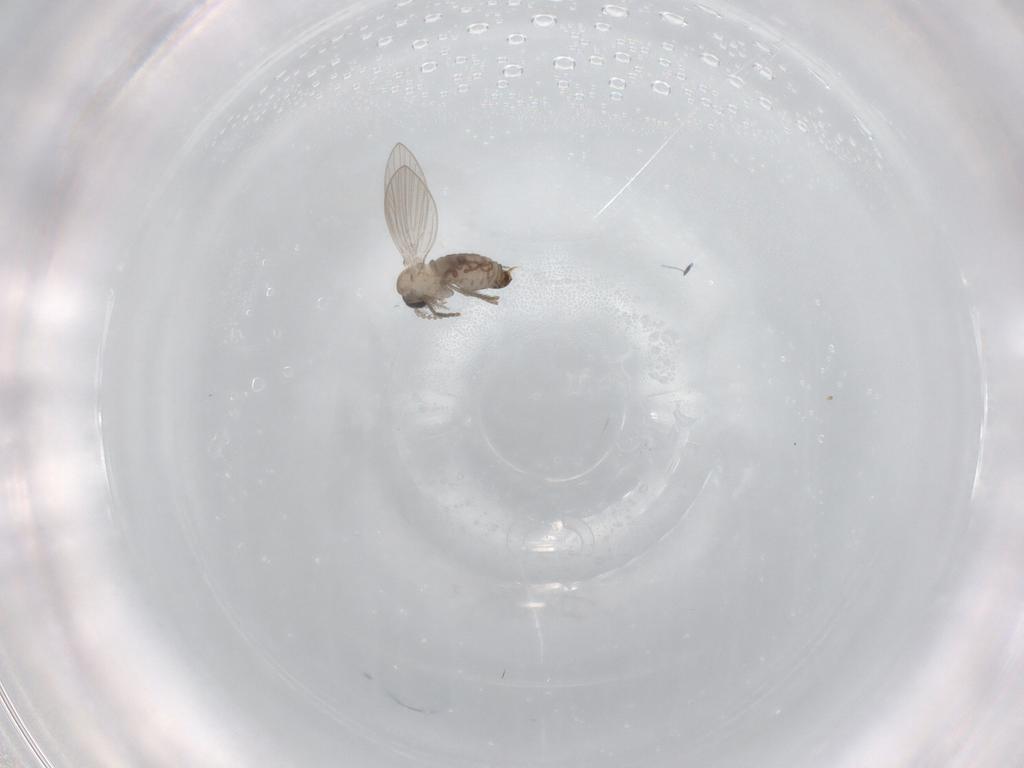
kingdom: Animalia
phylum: Arthropoda
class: Insecta
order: Diptera
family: Psychodidae
